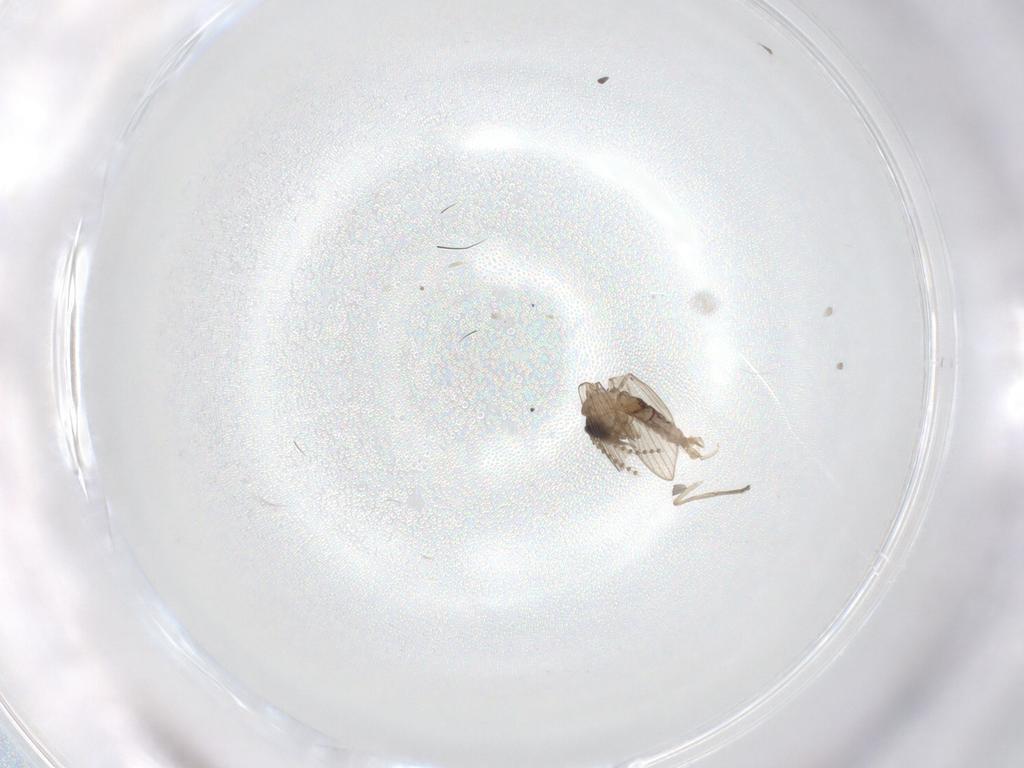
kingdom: Animalia
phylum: Arthropoda
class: Insecta
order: Diptera
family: Psychodidae
